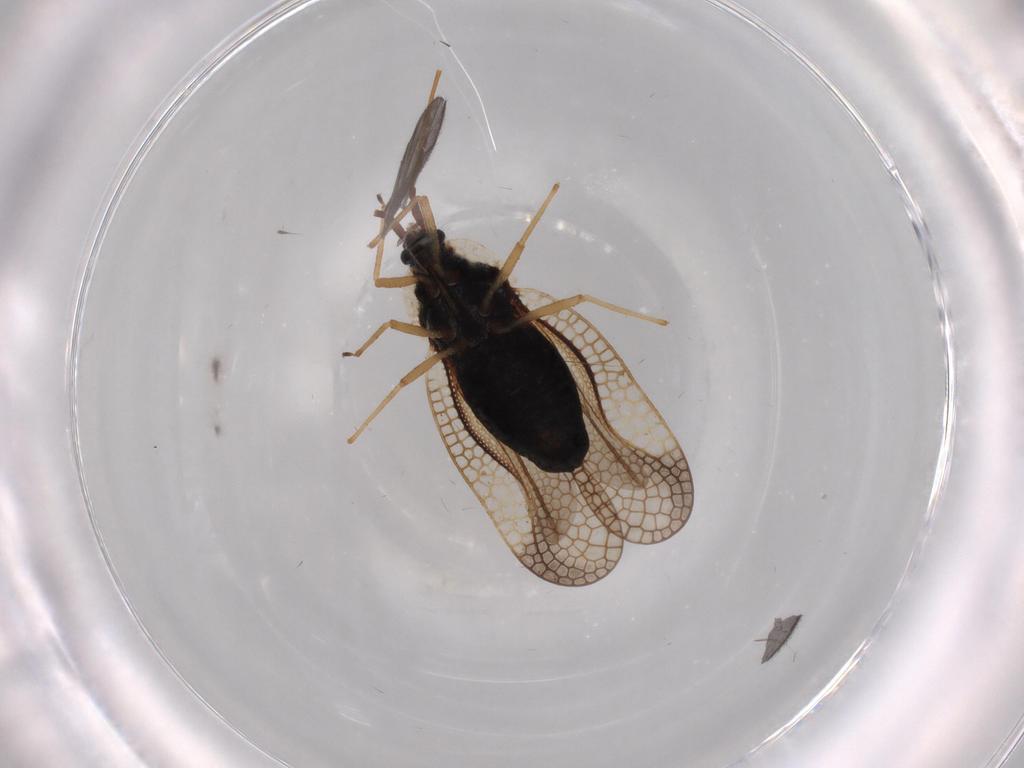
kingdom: Animalia
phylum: Arthropoda
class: Insecta
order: Hemiptera
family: Tingidae
